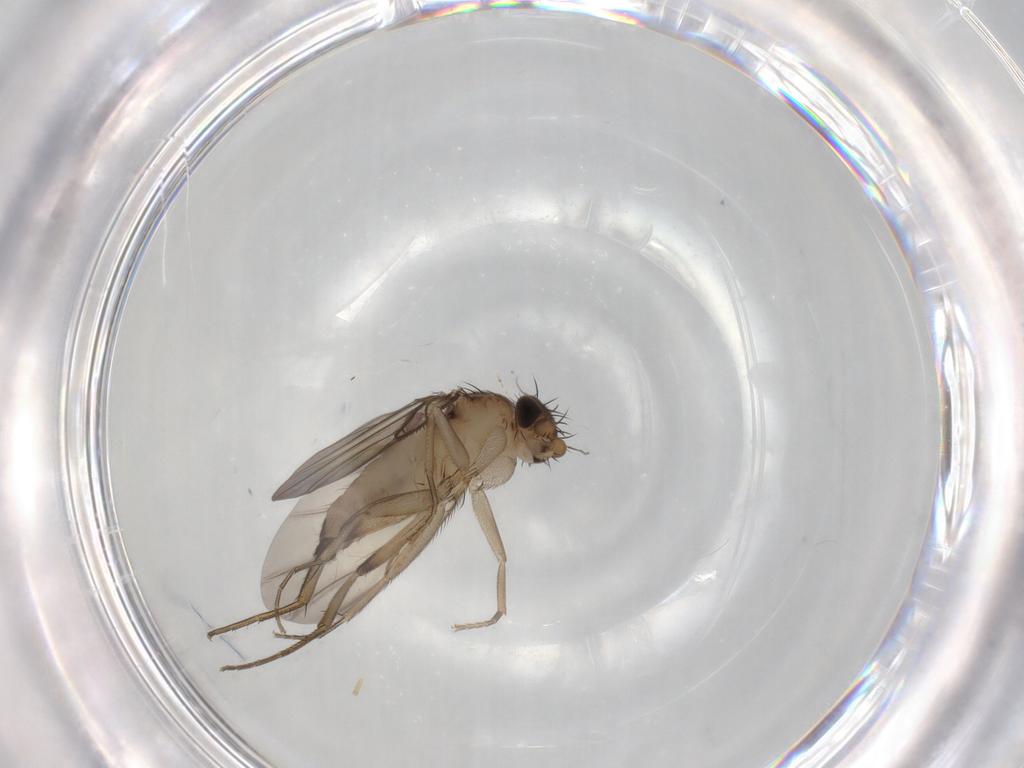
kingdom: Animalia
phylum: Arthropoda
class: Insecta
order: Diptera
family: Phoridae
